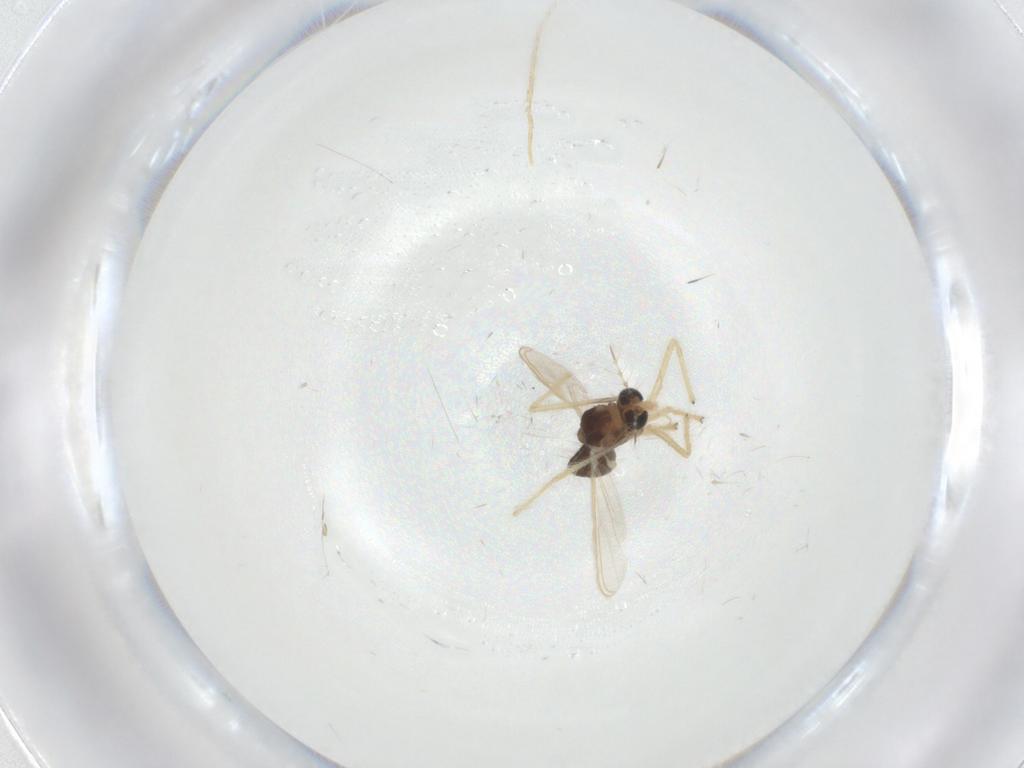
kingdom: Animalia
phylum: Arthropoda
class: Insecta
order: Diptera
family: Chironomidae
